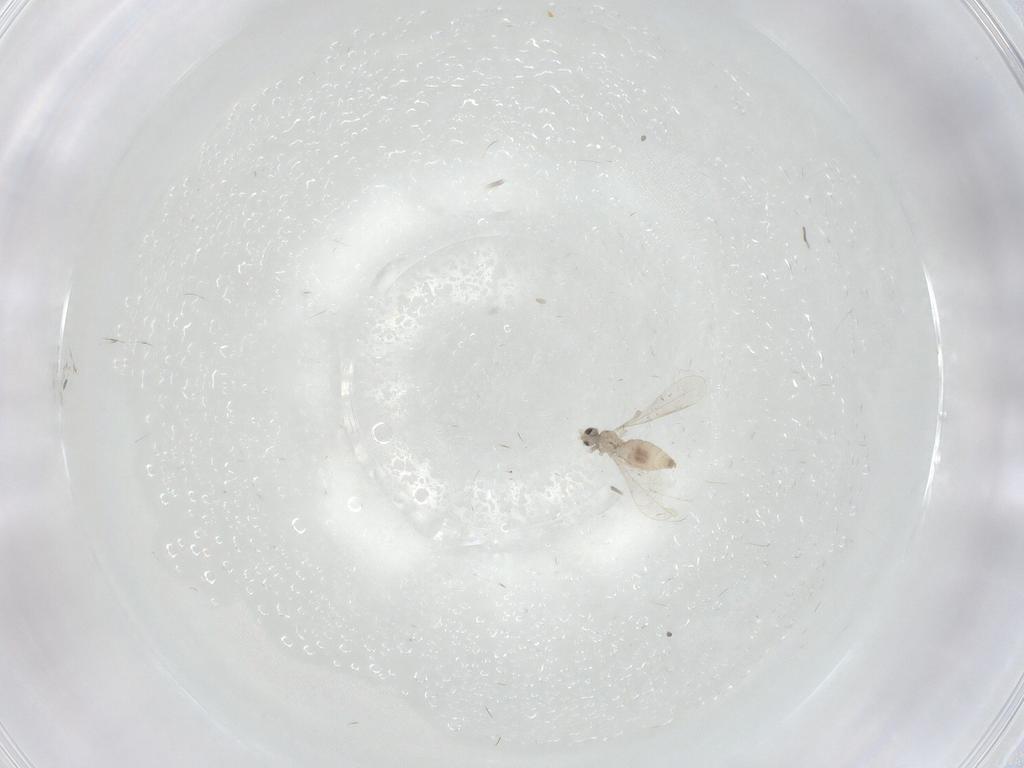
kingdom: Animalia
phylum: Arthropoda
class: Insecta
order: Diptera
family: Cecidomyiidae
